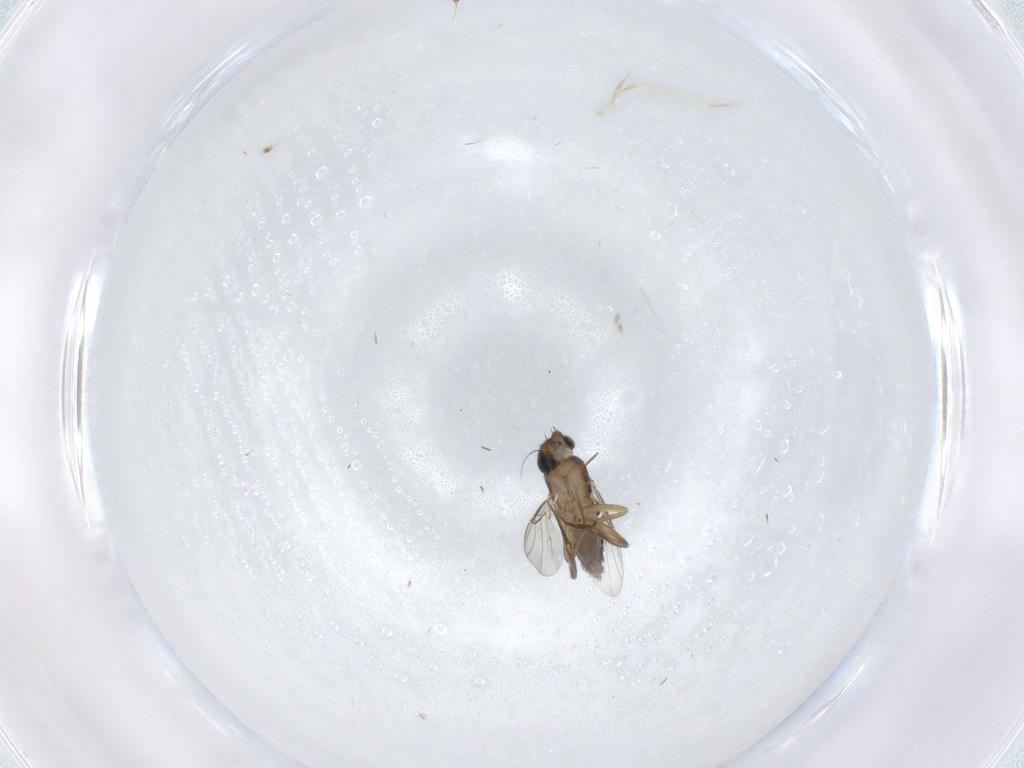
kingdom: Animalia
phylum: Arthropoda
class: Insecta
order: Diptera
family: Phoridae
